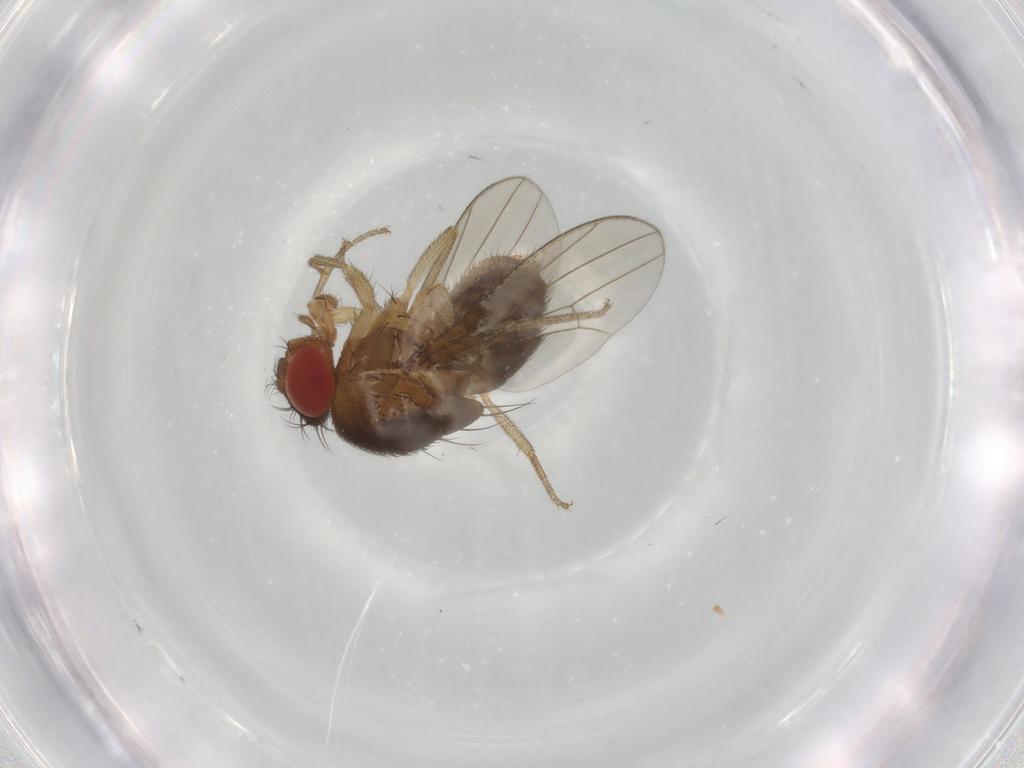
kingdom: Animalia
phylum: Arthropoda
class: Insecta
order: Diptera
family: Drosophilidae
